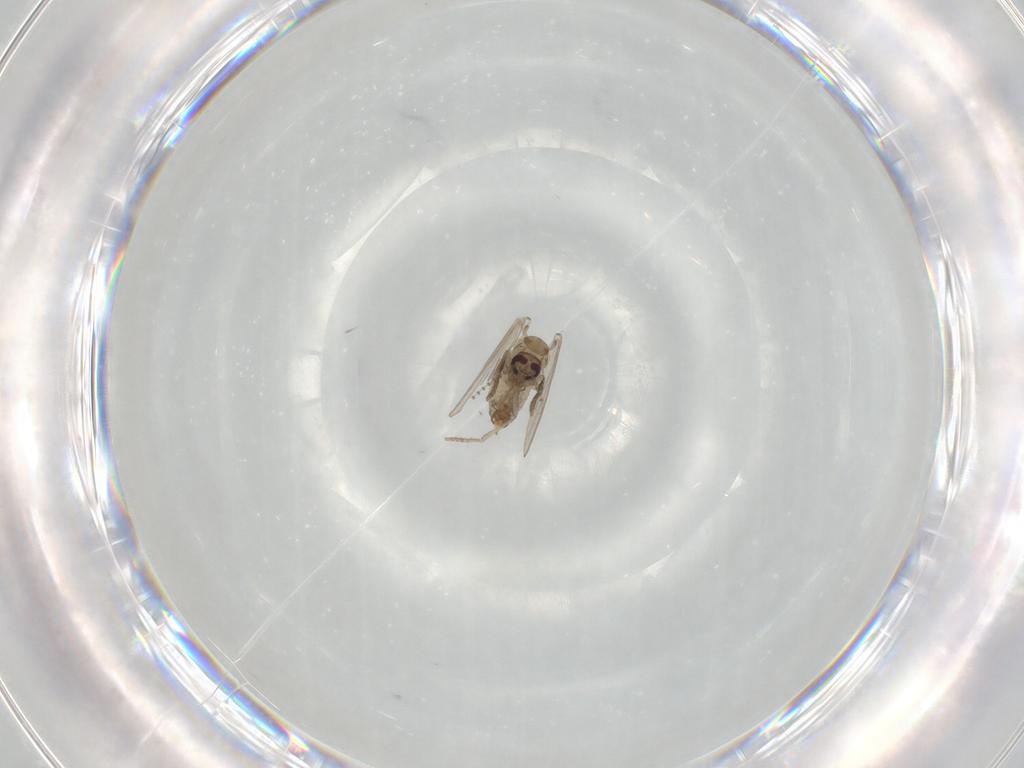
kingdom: Animalia
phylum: Arthropoda
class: Insecta
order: Diptera
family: Psychodidae
